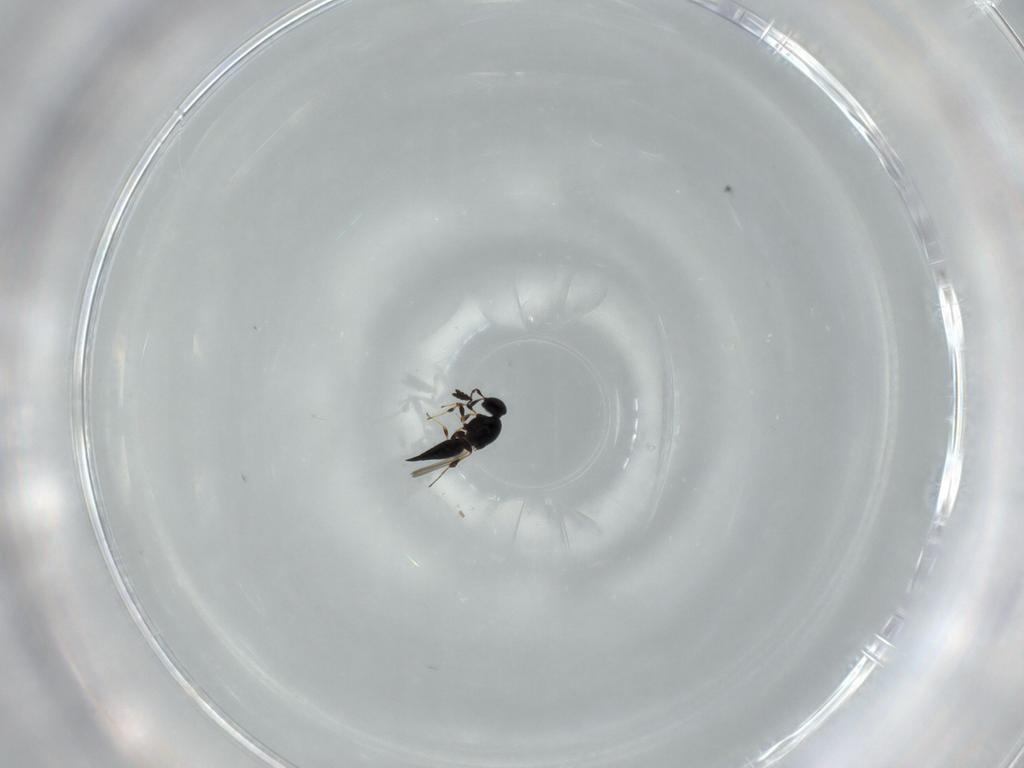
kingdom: Animalia
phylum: Arthropoda
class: Insecta
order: Hymenoptera
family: Platygastridae
